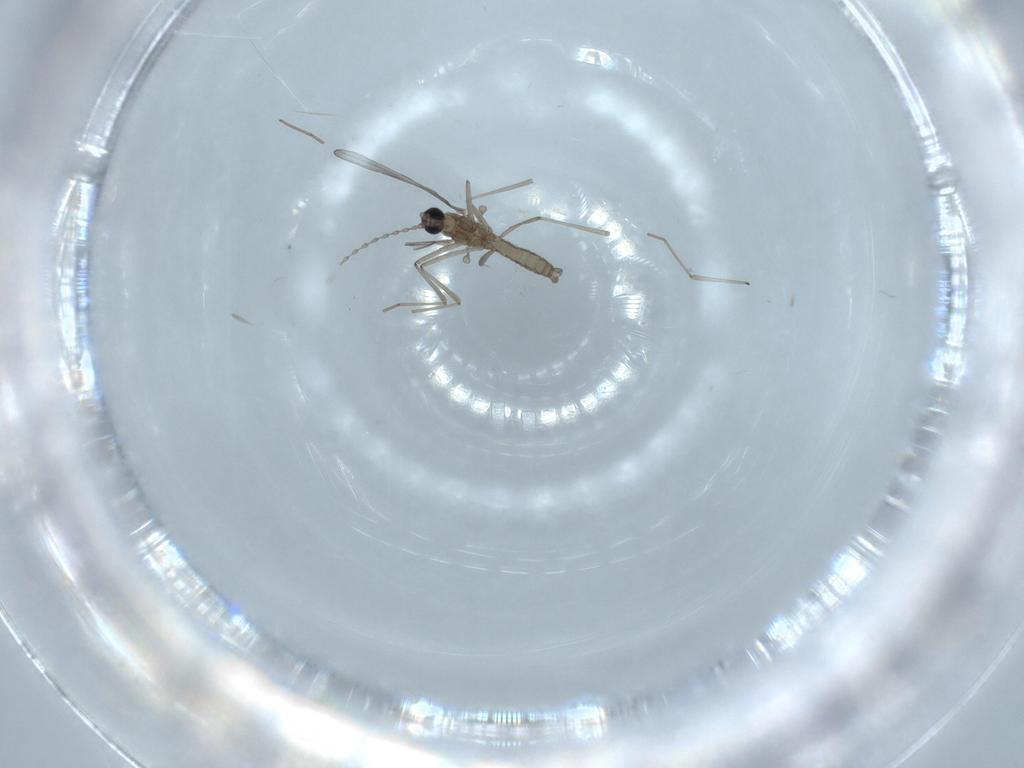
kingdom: Animalia
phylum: Arthropoda
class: Insecta
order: Diptera
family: Cecidomyiidae
